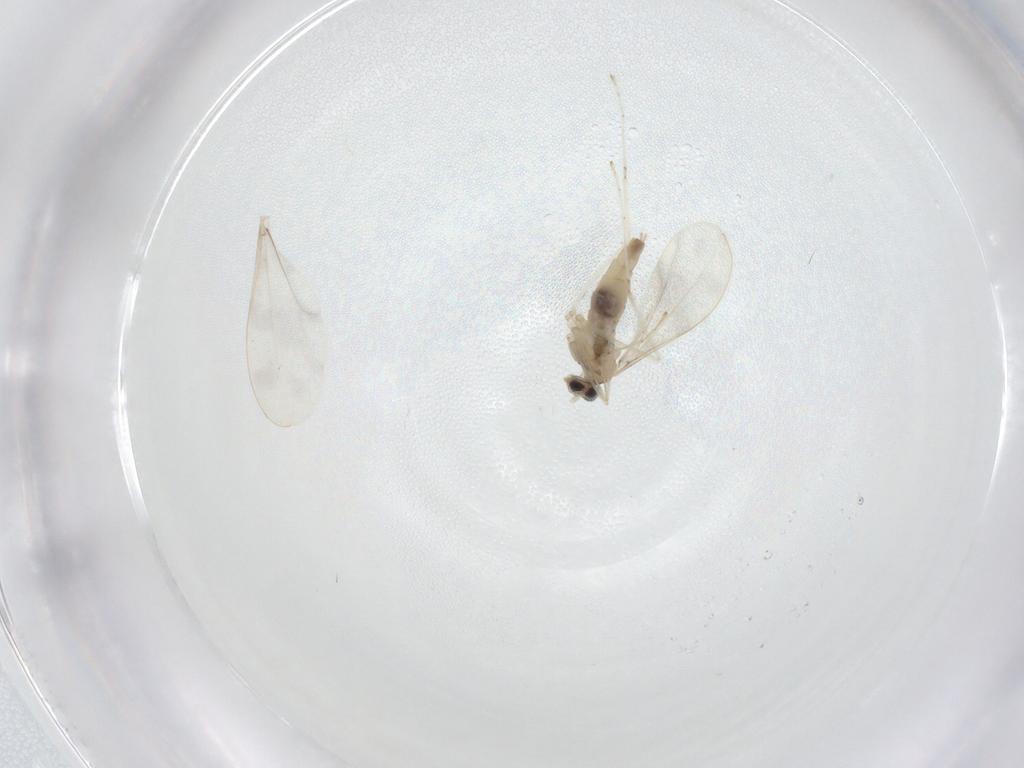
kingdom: Animalia
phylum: Arthropoda
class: Insecta
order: Diptera
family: Cecidomyiidae
